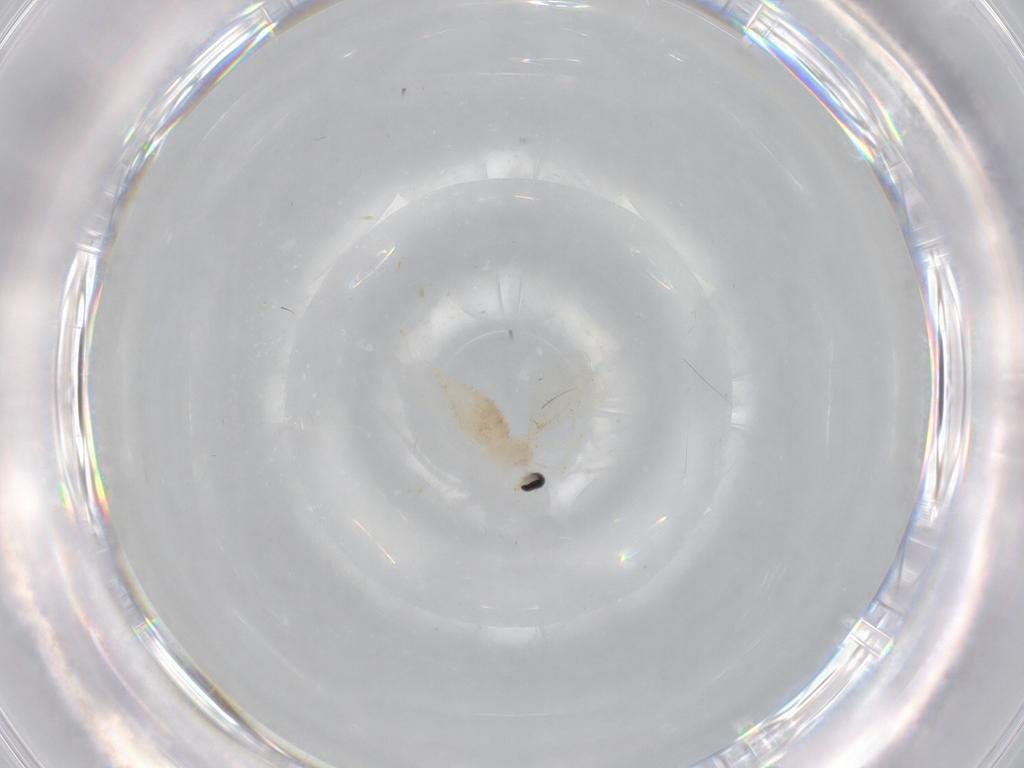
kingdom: Animalia
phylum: Arthropoda
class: Insecta
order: Diptera
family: Cecidomyiidae
